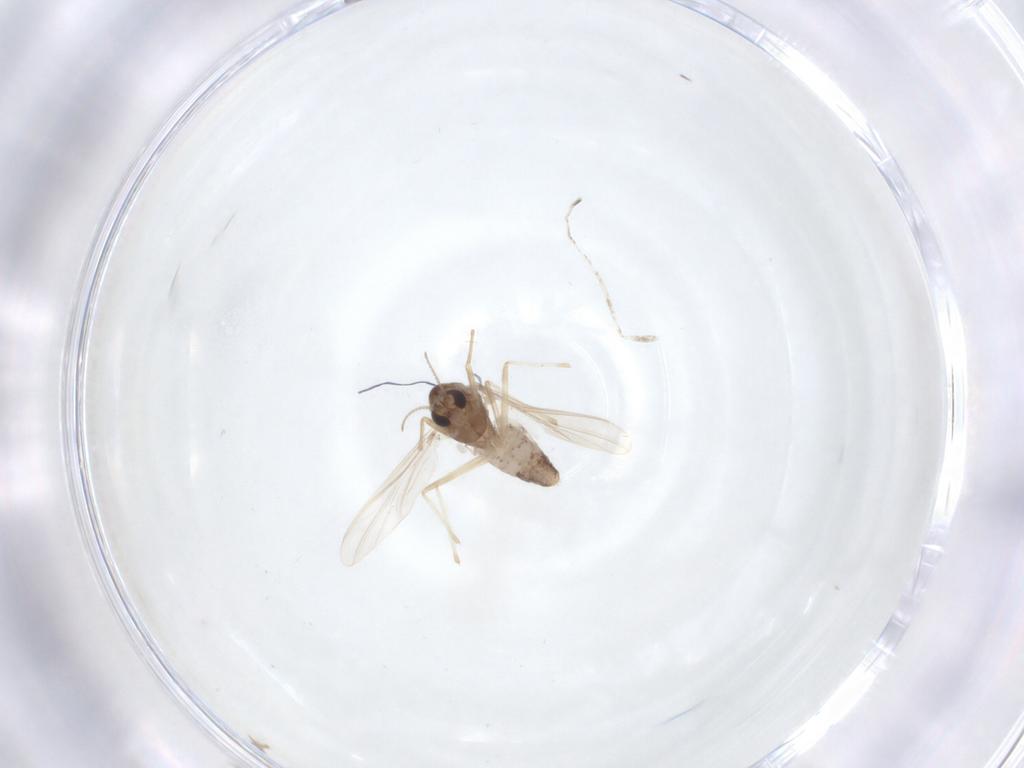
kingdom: Animalia
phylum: Arthropoda
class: Insecta
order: Diptera
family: Chironomidae
